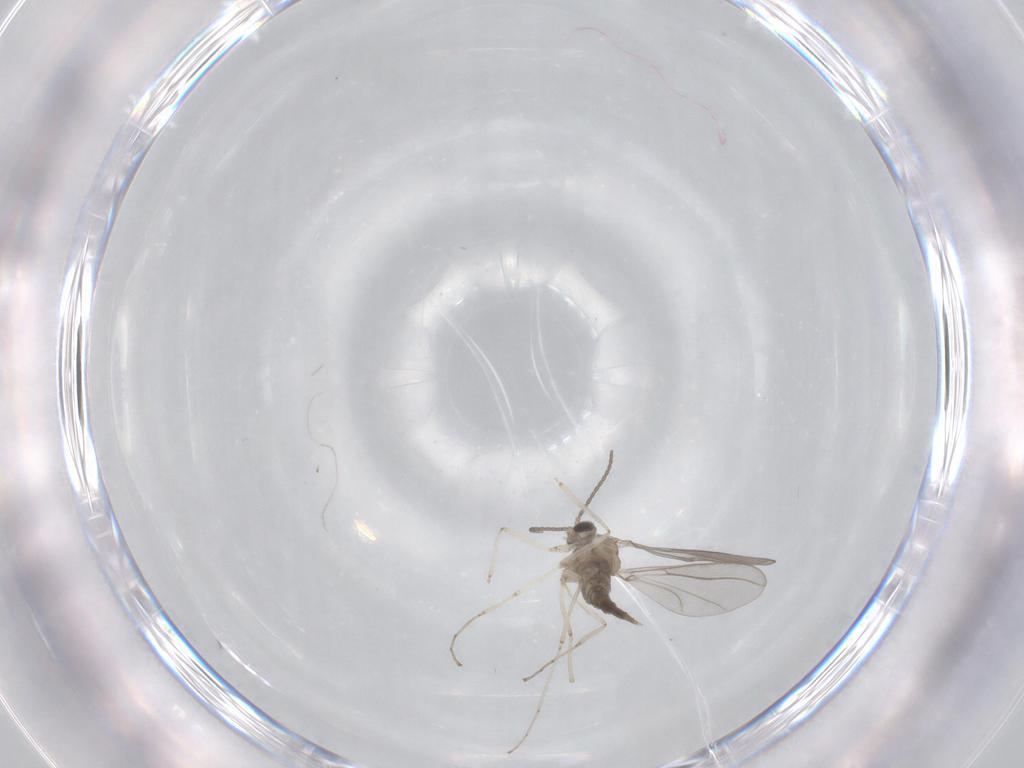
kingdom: Animalia
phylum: Arthropoda
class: Insecta
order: Diptera
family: Cecidomyiidae
